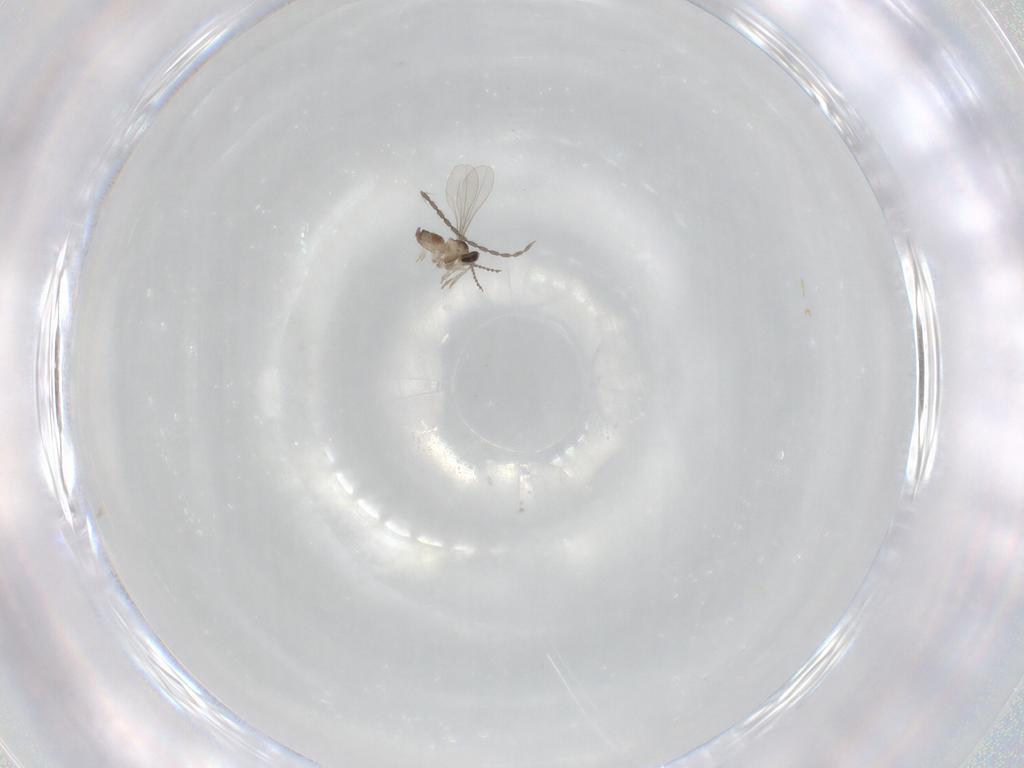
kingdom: Animalia
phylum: Arthropoda
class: Insecta
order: Diptera
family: Cecidomyiidae
